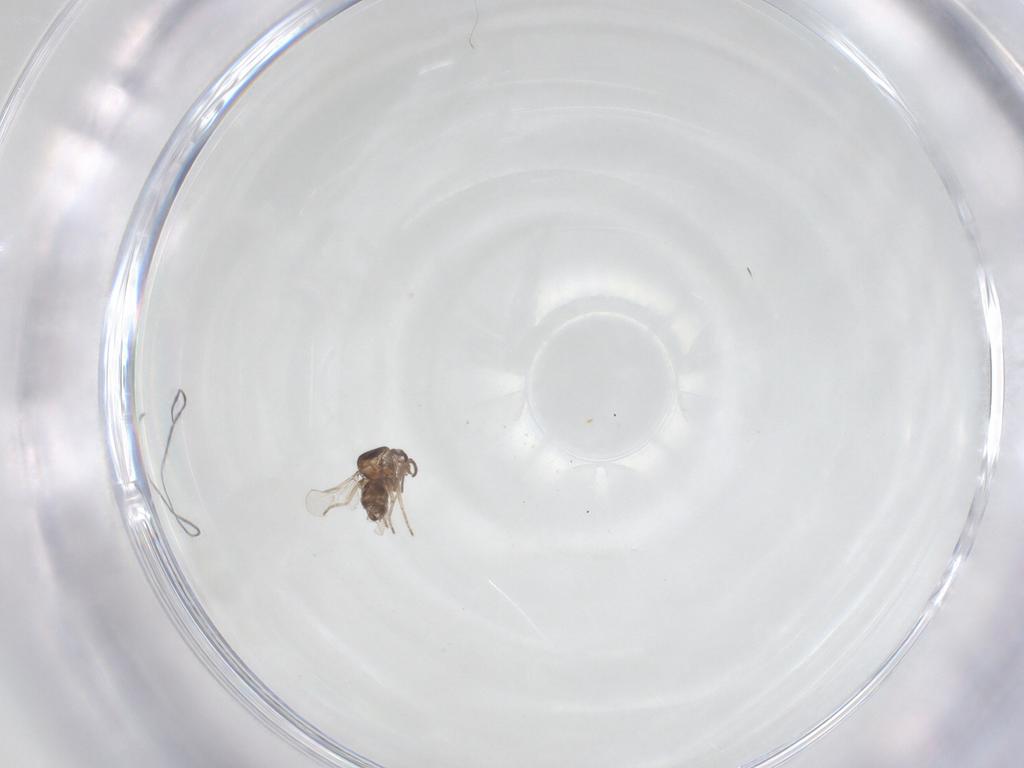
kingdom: Animalia
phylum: Arthropoda
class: Insecta
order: Diptera
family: Ceratopogonidae
